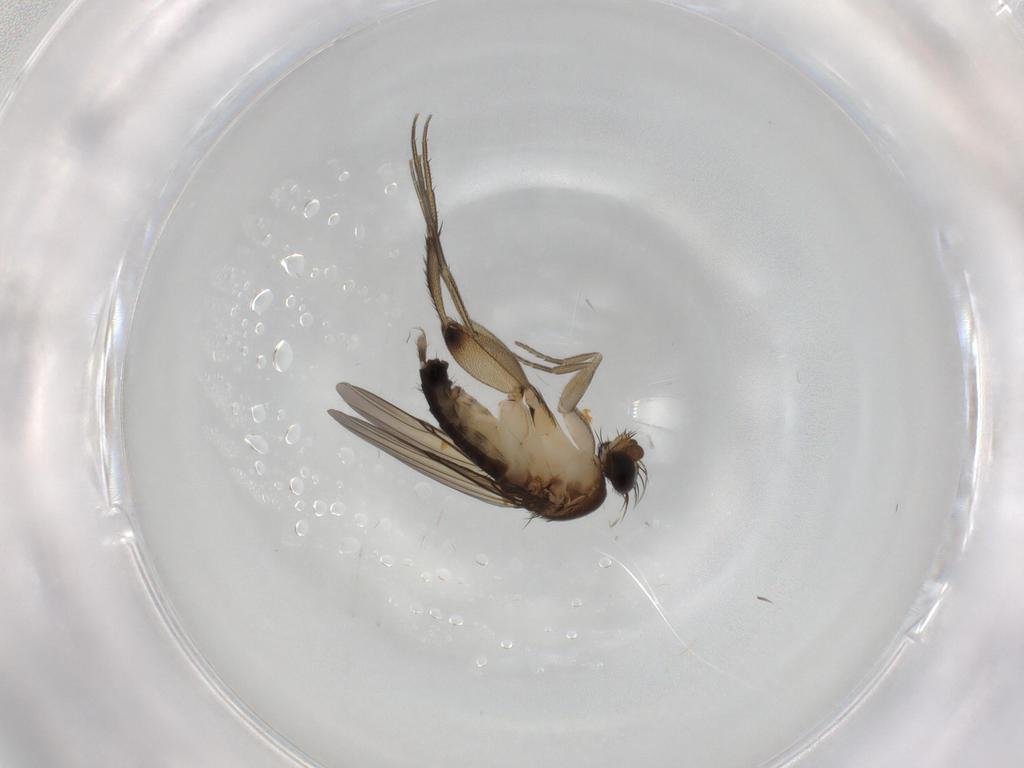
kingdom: Animalia
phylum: Arthropoda
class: Insecta
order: Diptera
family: Phoridae
